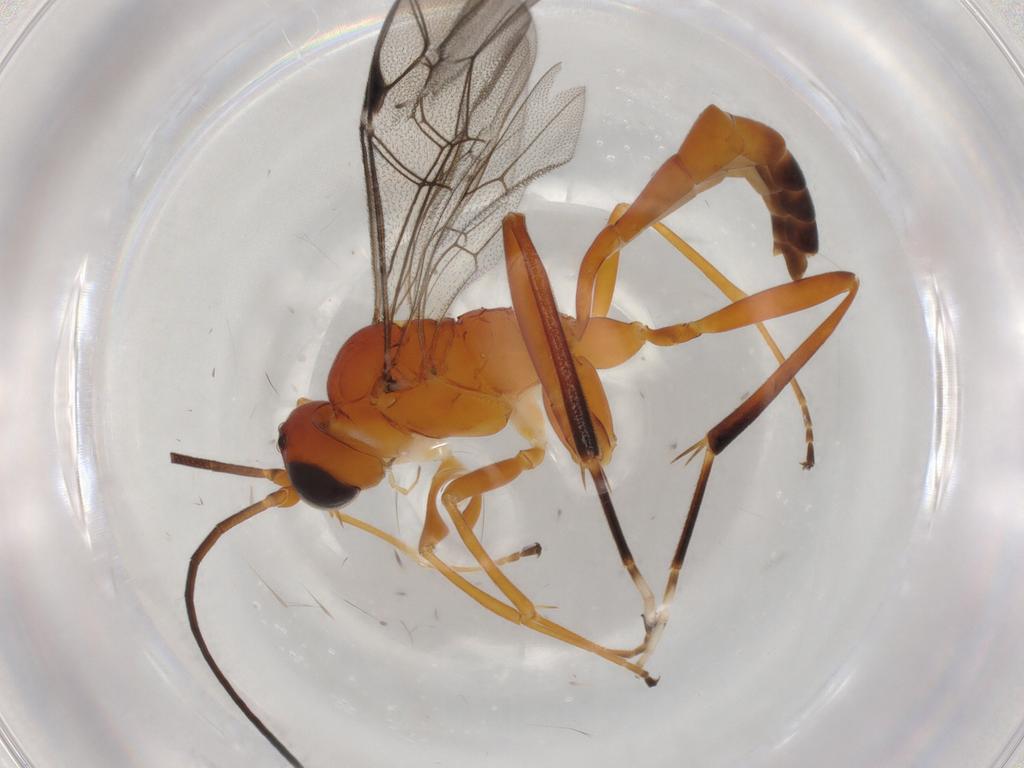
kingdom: Animalia
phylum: Arthropoda
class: Insecta
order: Hymenoptera
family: Ichneumonidae
